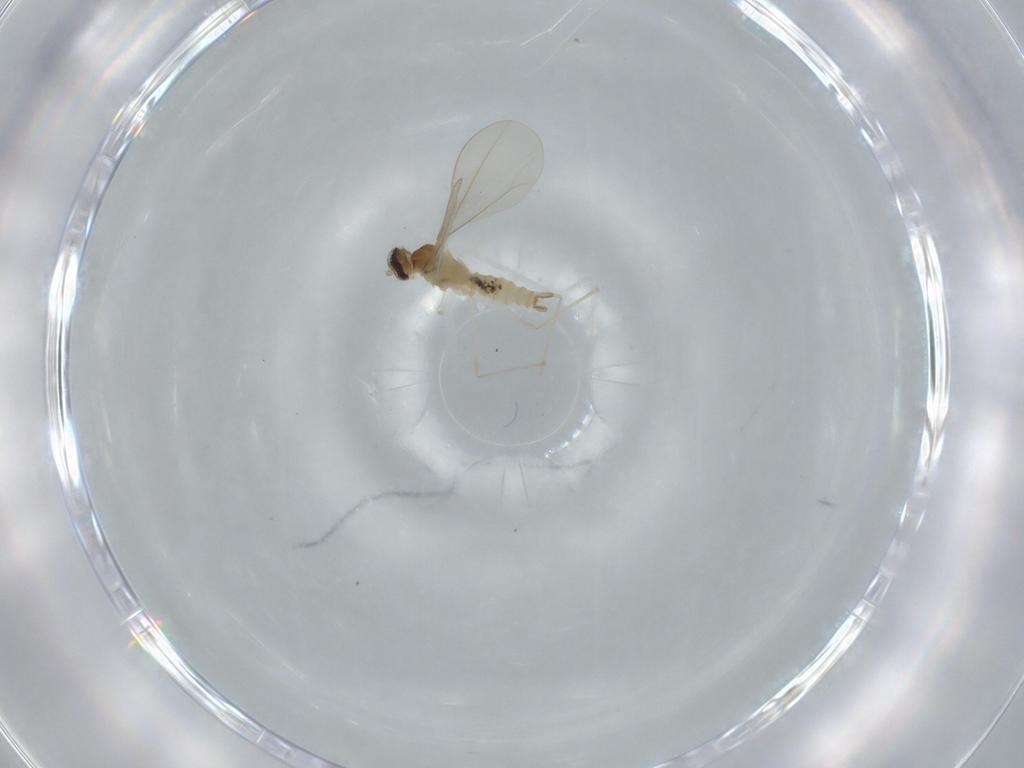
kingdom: Animalia
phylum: Arthropoda
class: Insecta
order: Diptera
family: Cecidomyiidae
